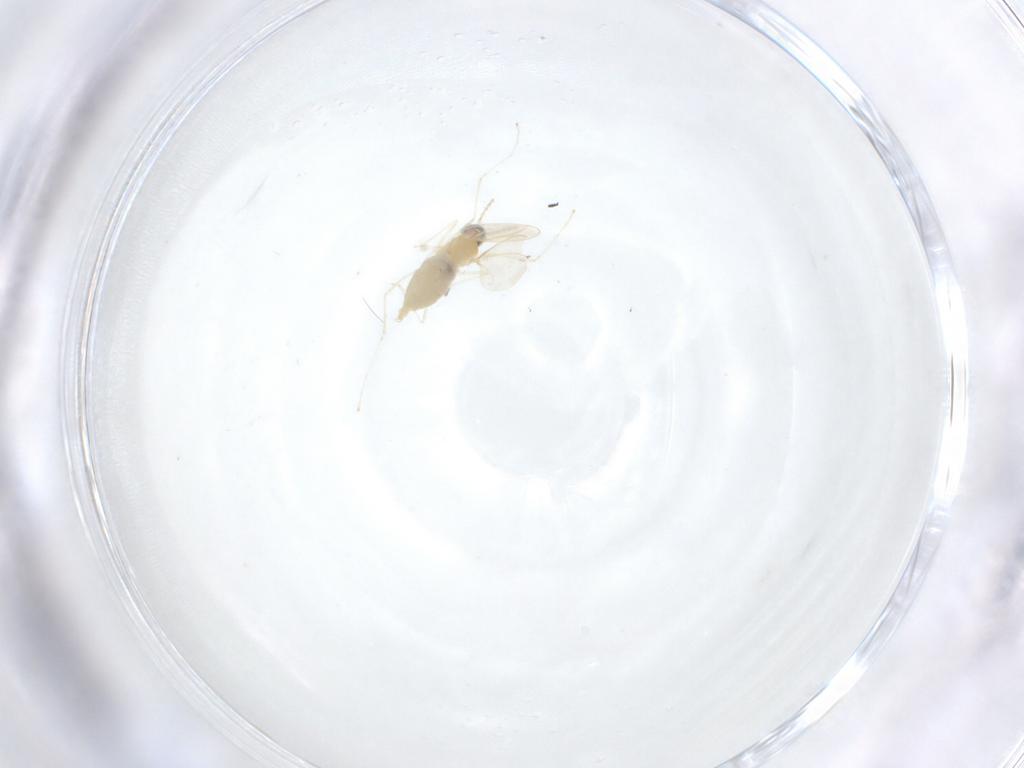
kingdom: Animalia
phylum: Arthropoda
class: Insecta
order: Diptera
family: Cecidomyiidae
